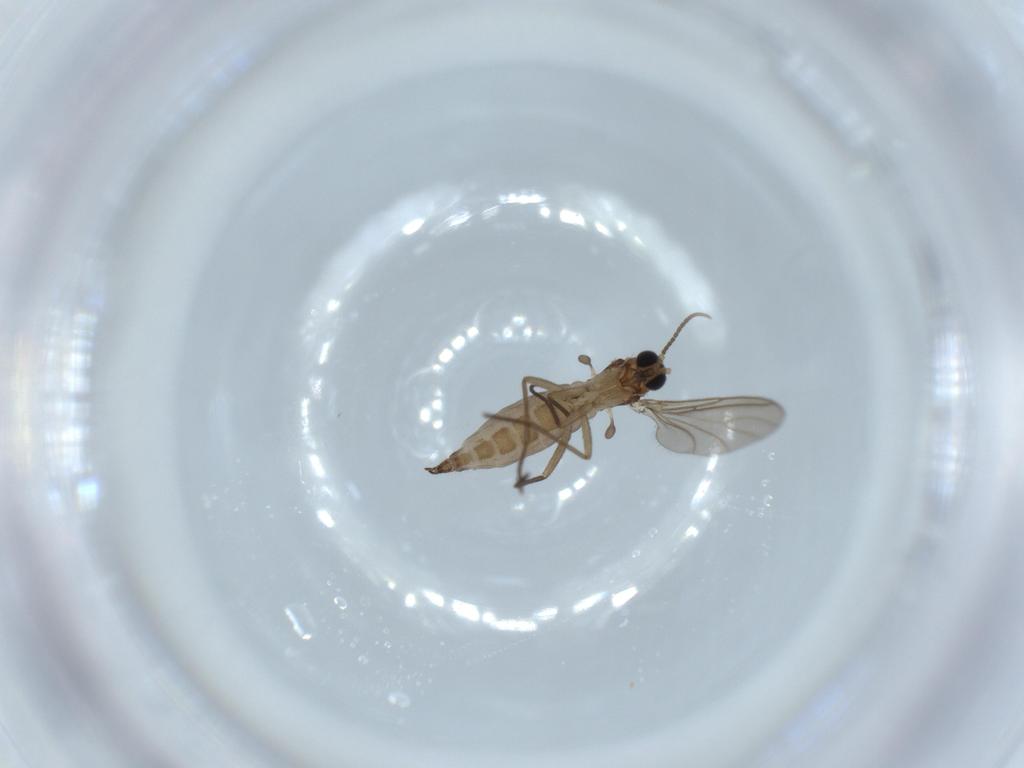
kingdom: Animalia
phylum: Arthropoda
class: Insecta
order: Diptera
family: Sciaridae
